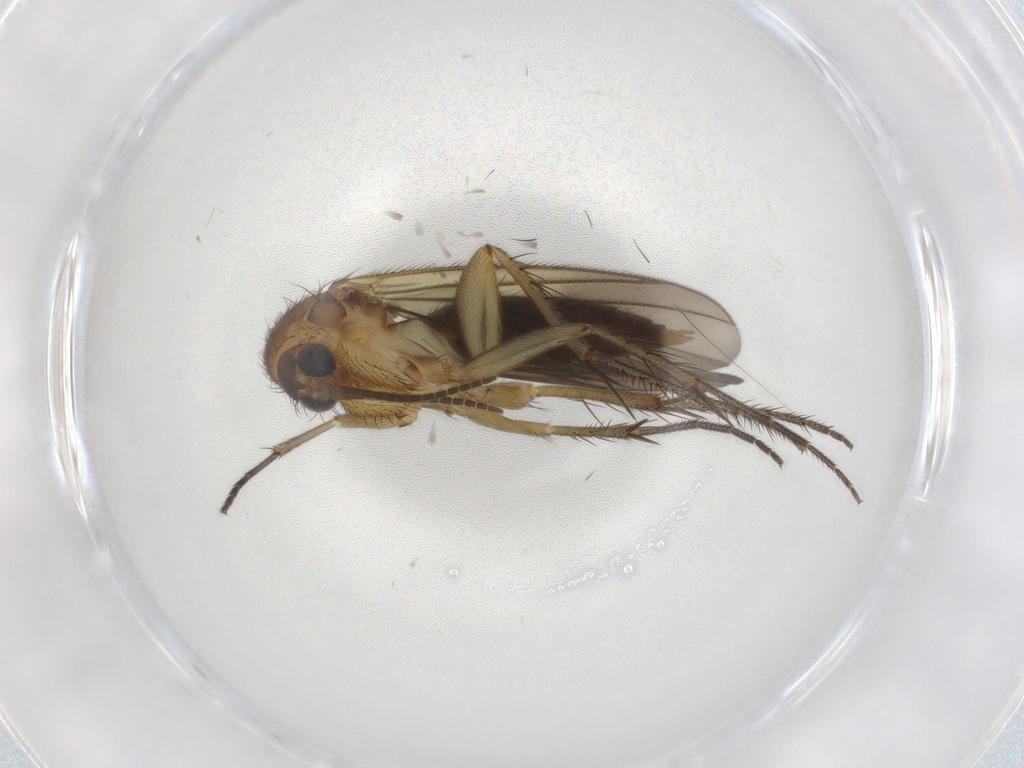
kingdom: Animalia
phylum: Arthropoda
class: Insecta
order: Diptera
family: Mycetophilidae
